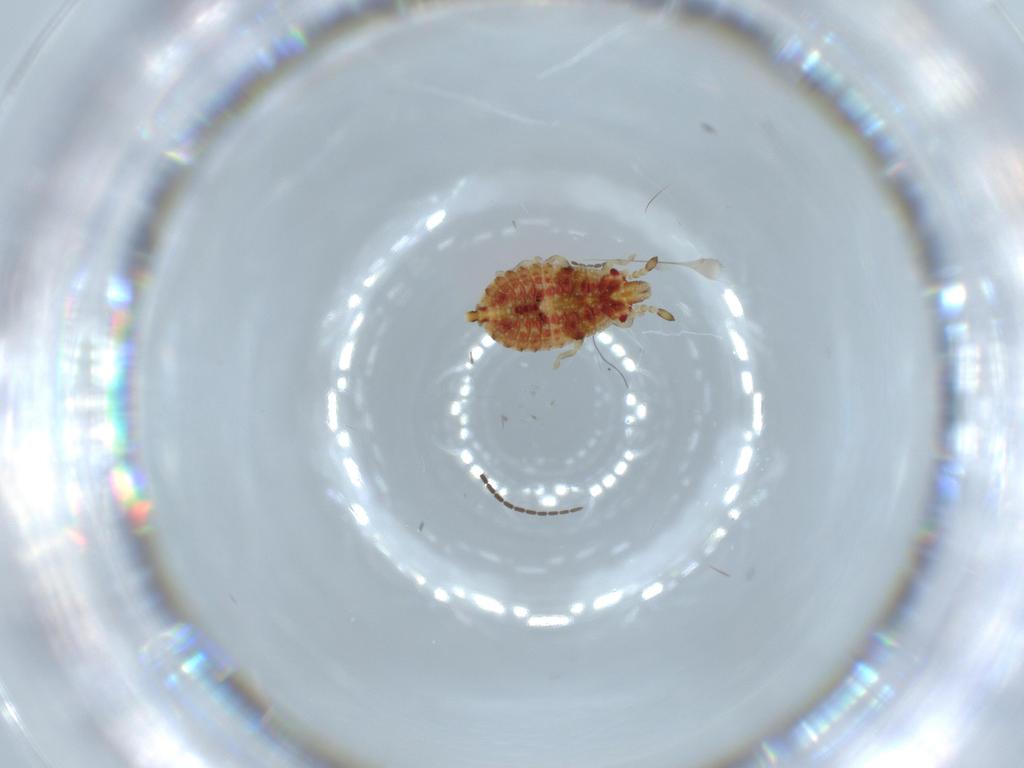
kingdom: Animalia
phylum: Arthropoda
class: Insecta
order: Hemiptera
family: Aradidae
